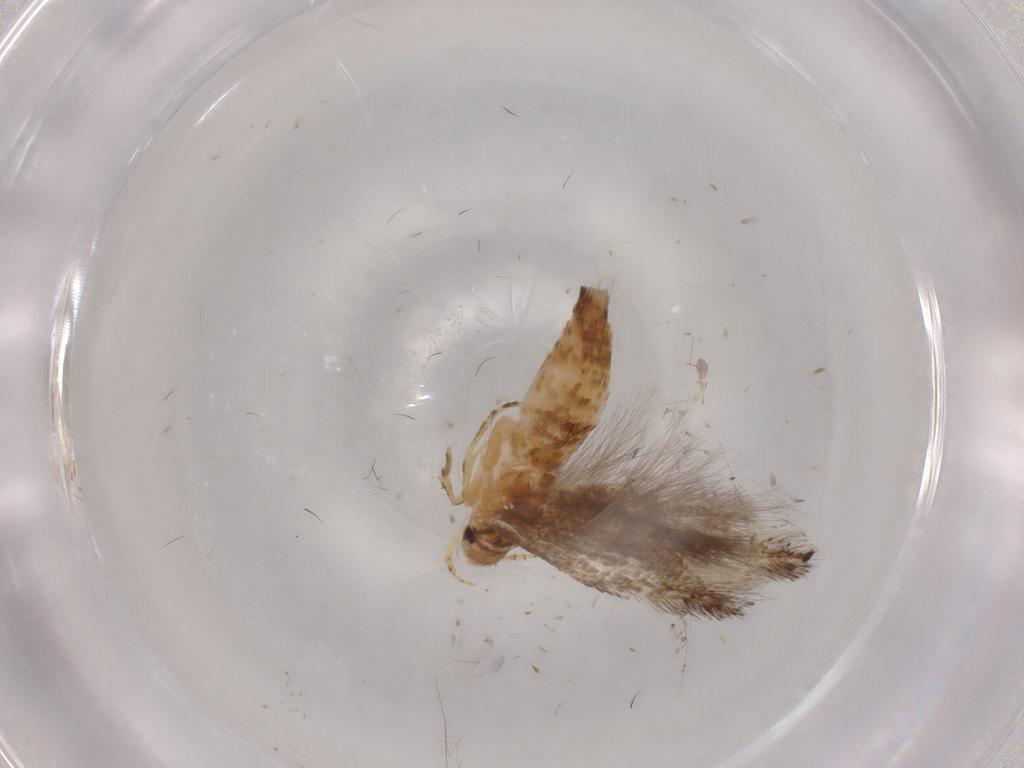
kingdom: Animalia
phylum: Arthropoda
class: Insecta
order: Lepidoptera
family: Elachistidae
